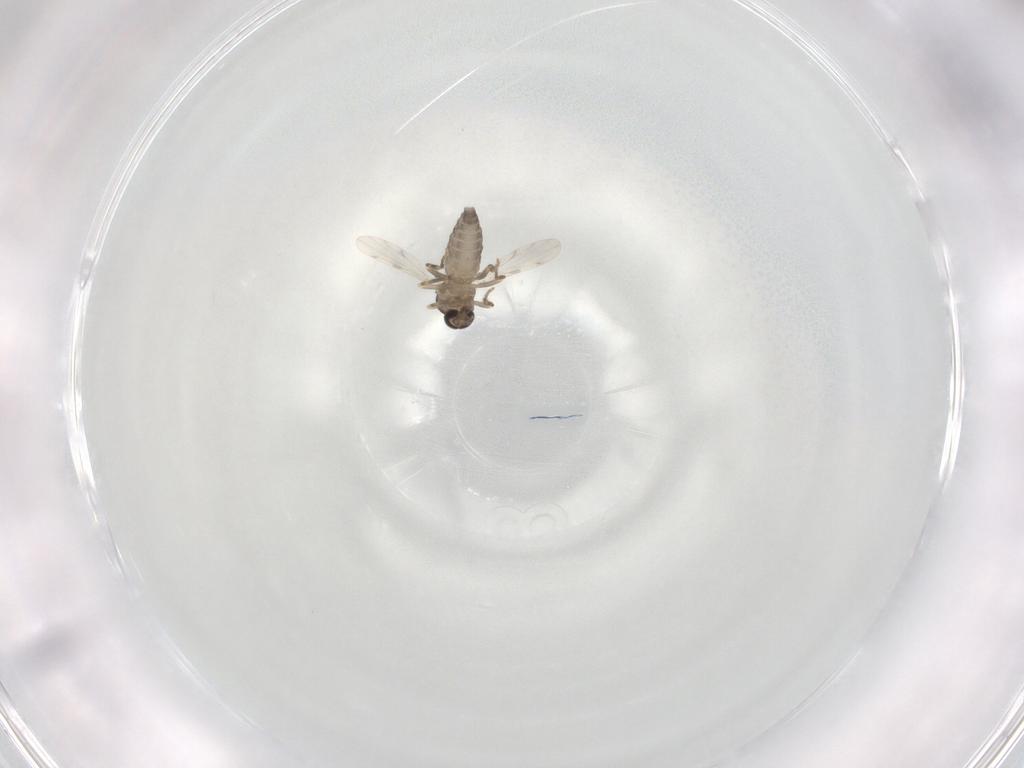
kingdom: Animalia
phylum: Arthropoda
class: Insecta
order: Diptera
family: Ceratopogonidae
